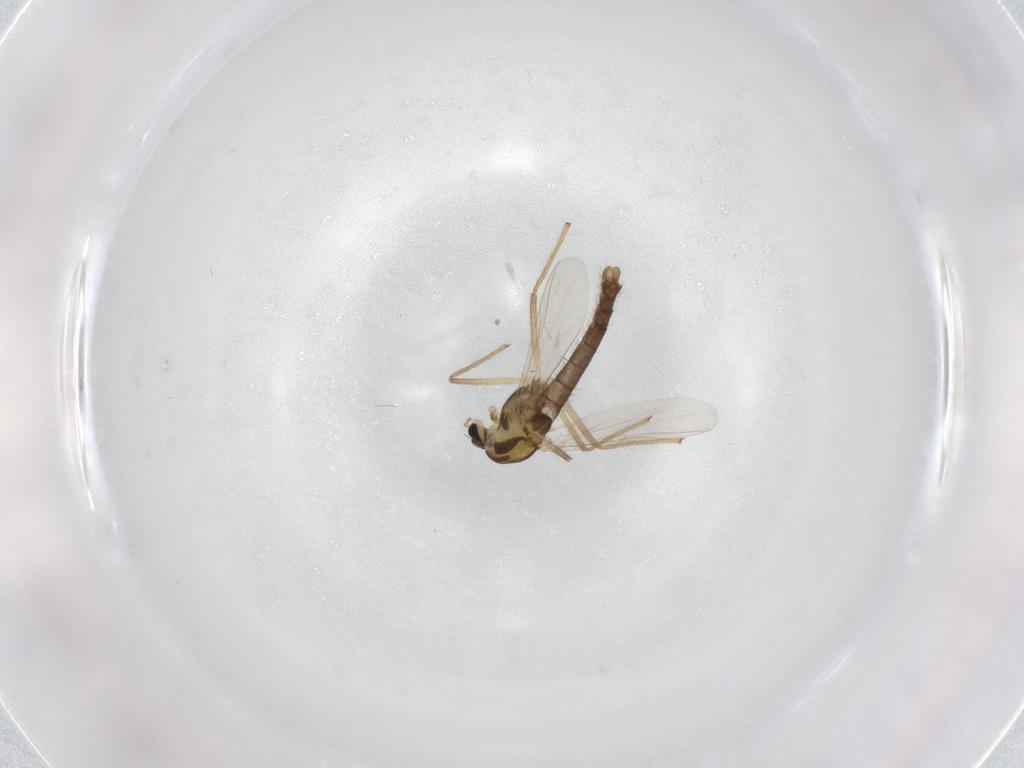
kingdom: Animalia
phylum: Arthropoda
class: Insecta
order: Diptera
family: Chironomidae
